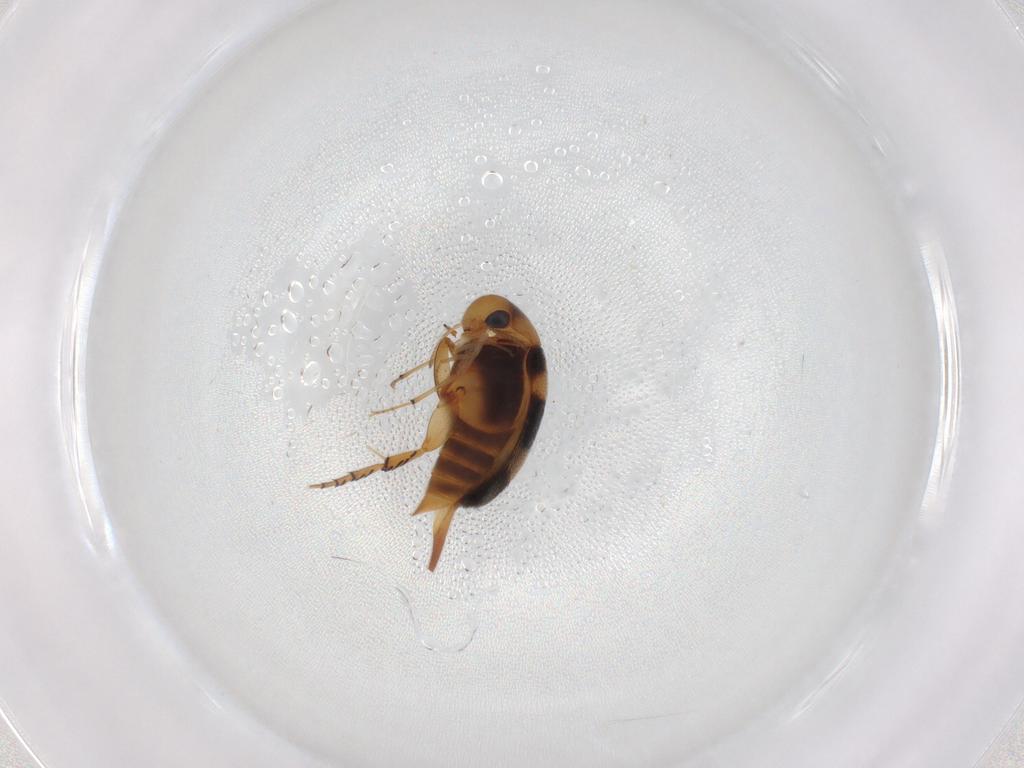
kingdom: Animalia
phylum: Arthropoda
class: Insecta
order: Coleoptera
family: Mordellidae
